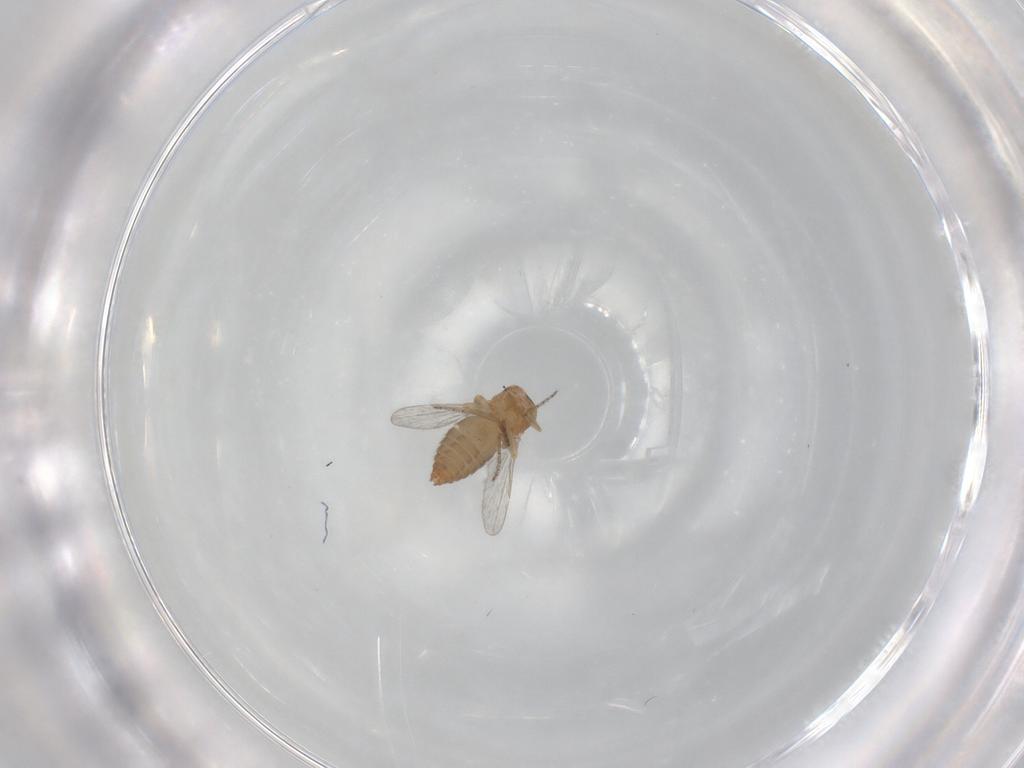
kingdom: Animalia
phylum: Arthropoda
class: Insecta
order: Diptera
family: Ceratopogonidae
